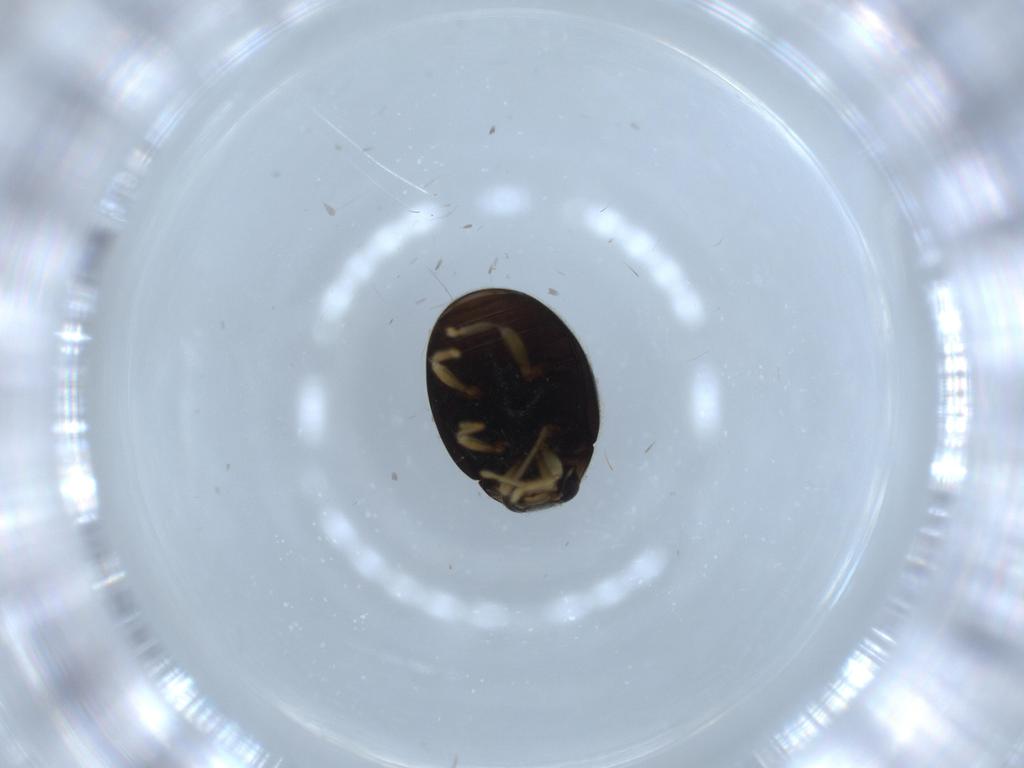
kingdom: Animalia
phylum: Arthropoda
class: Insecta
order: Coleoptera
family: Coccinellidae
